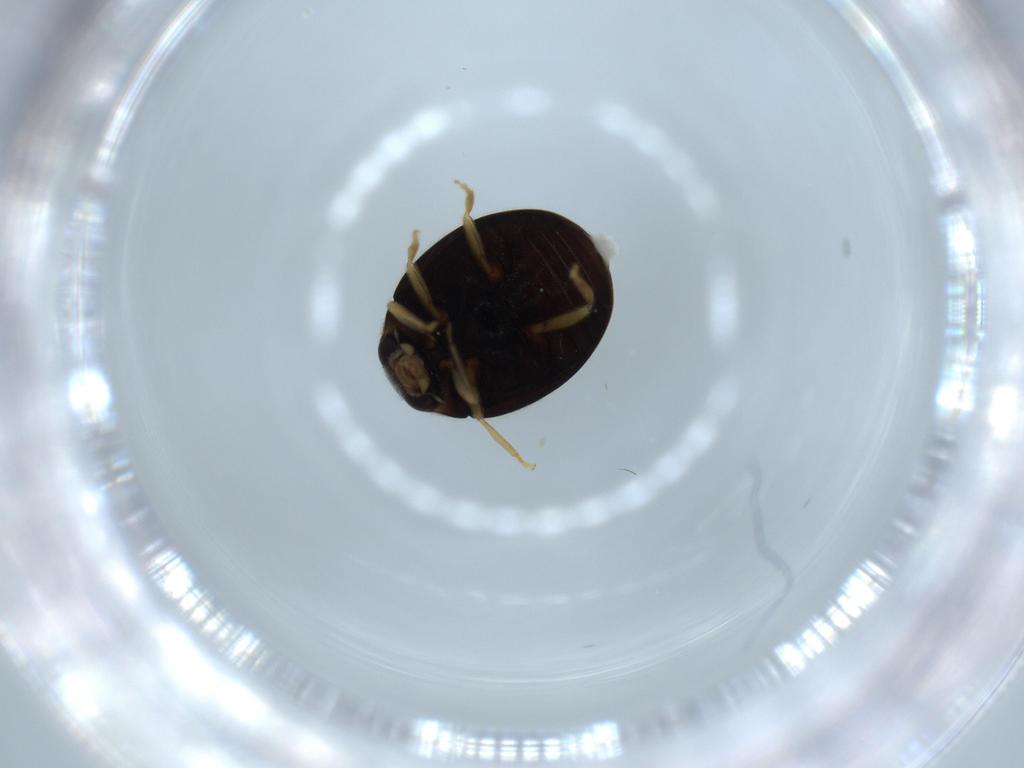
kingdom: Animalia
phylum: Arthropoda
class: Insecta
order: Coleoptera
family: Coccinellidae
